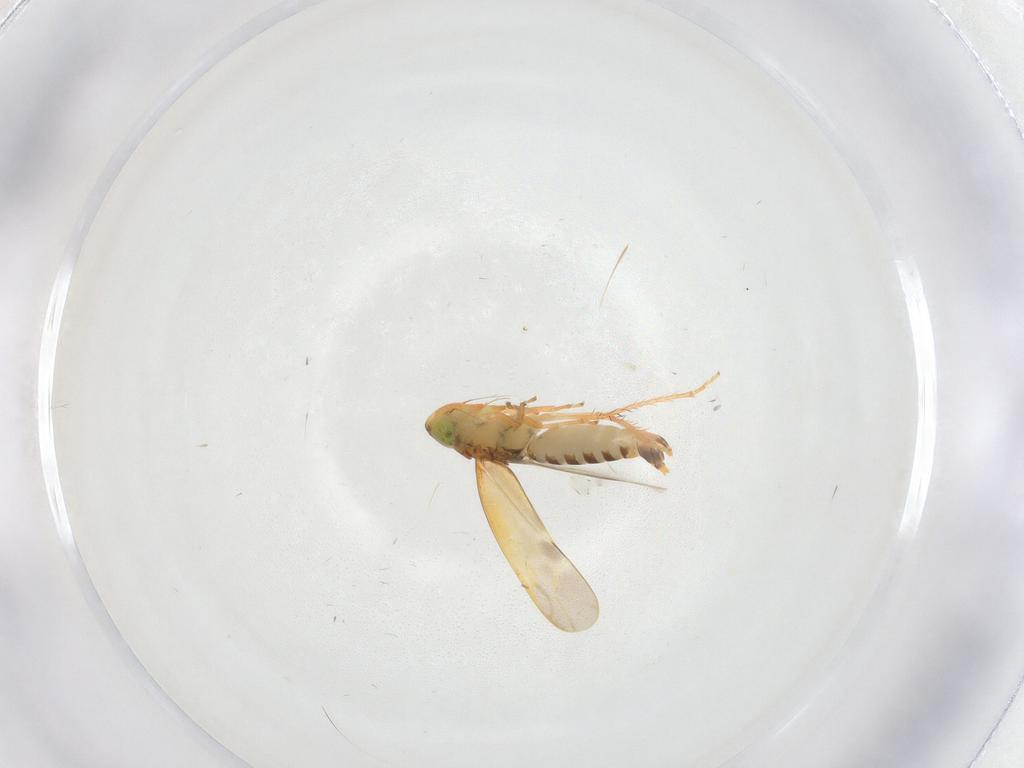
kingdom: Animalia
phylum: Arthropoda
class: Insecta
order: Hemiptera
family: Cicadellidae
